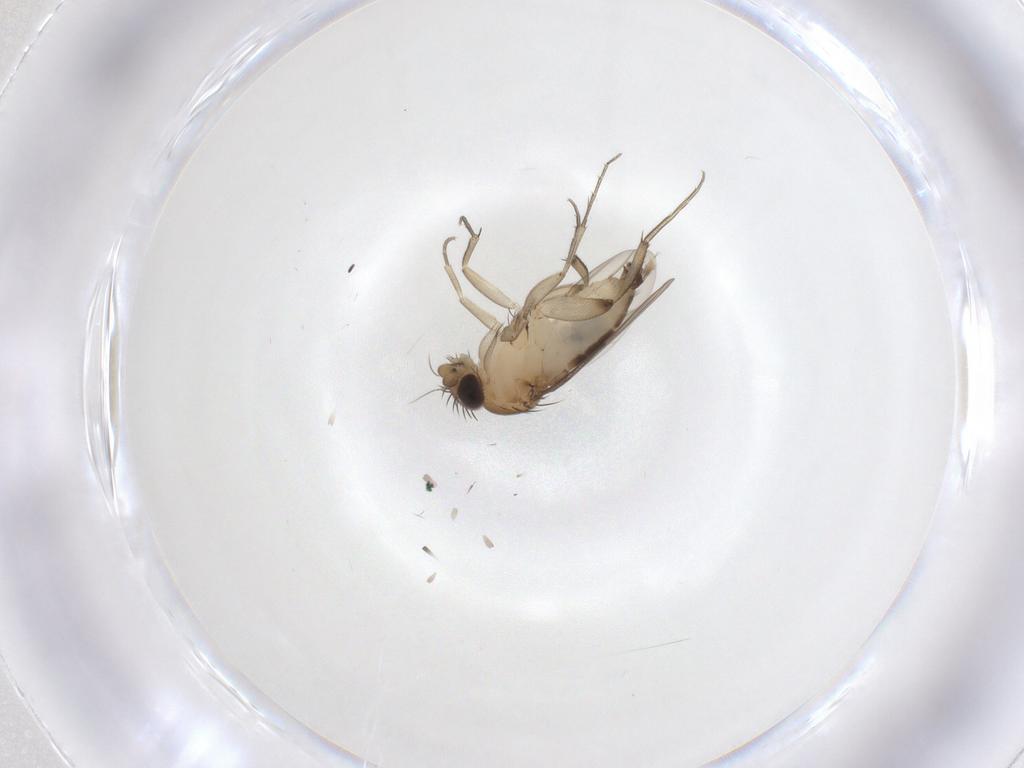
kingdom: Animalia
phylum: Arthropoda
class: Insecta
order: Diptera
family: Phoridae
